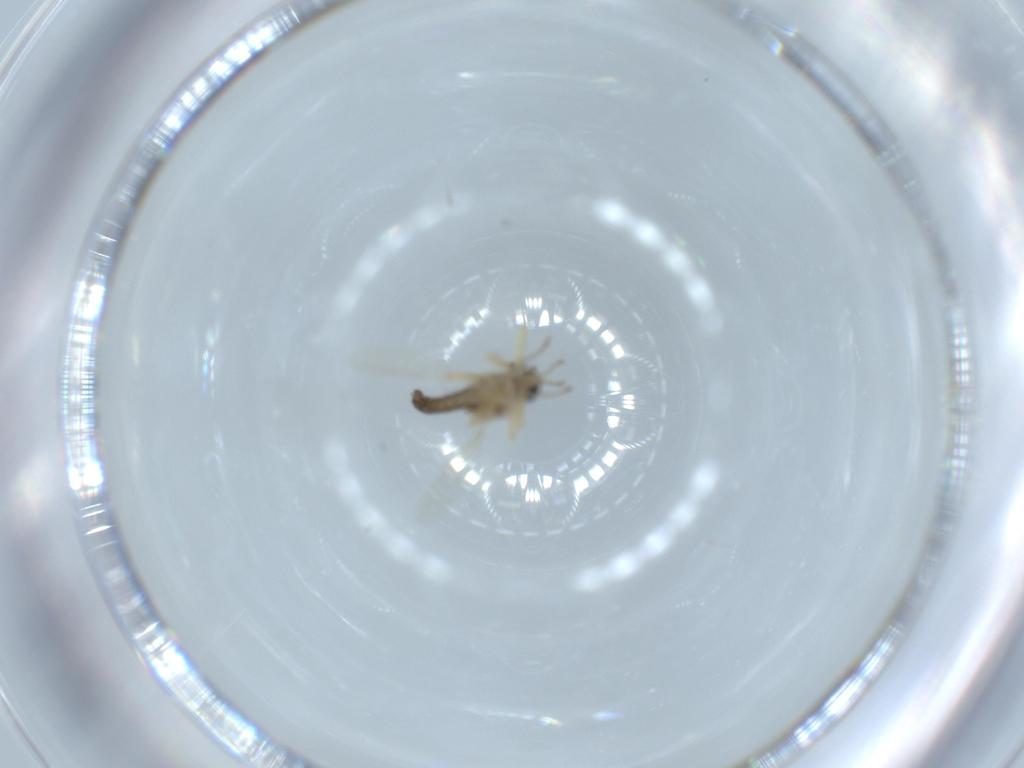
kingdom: Animalia
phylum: Arthropoda
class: Insecta
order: Diptera
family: Ceratopogonidae
